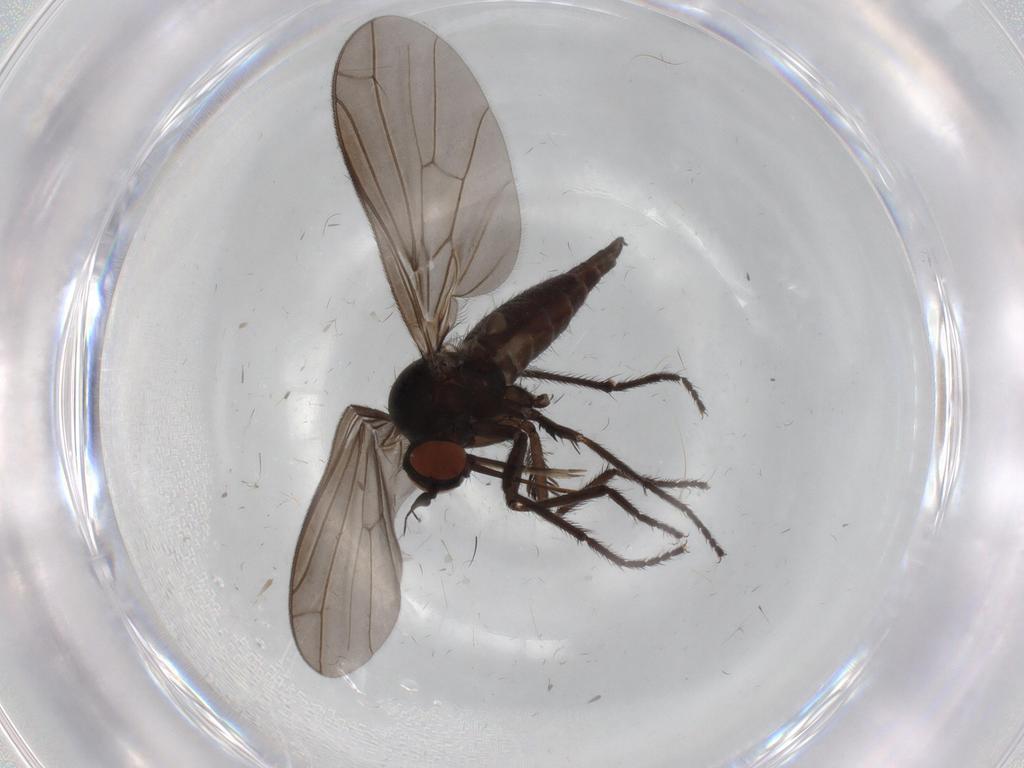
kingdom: Animalia
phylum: Arthropoda
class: Insecta
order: Diptera
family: Empididae
